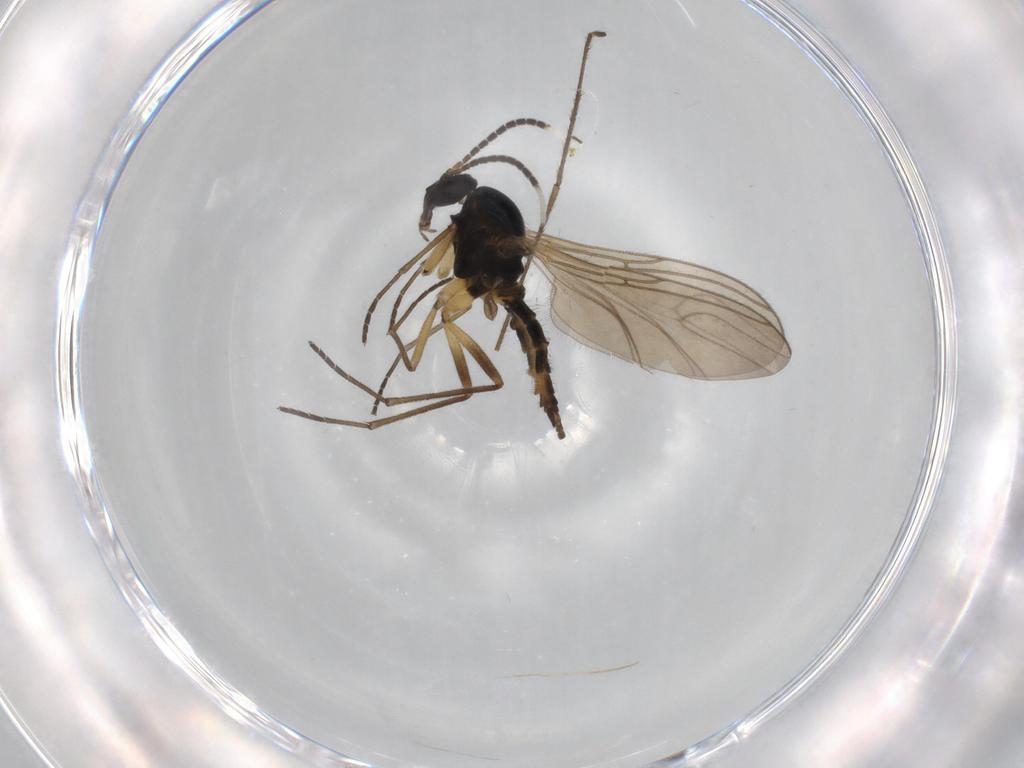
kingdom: Animalia
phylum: Arthropoda
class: Insecta
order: Diptera
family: Sciaridae
